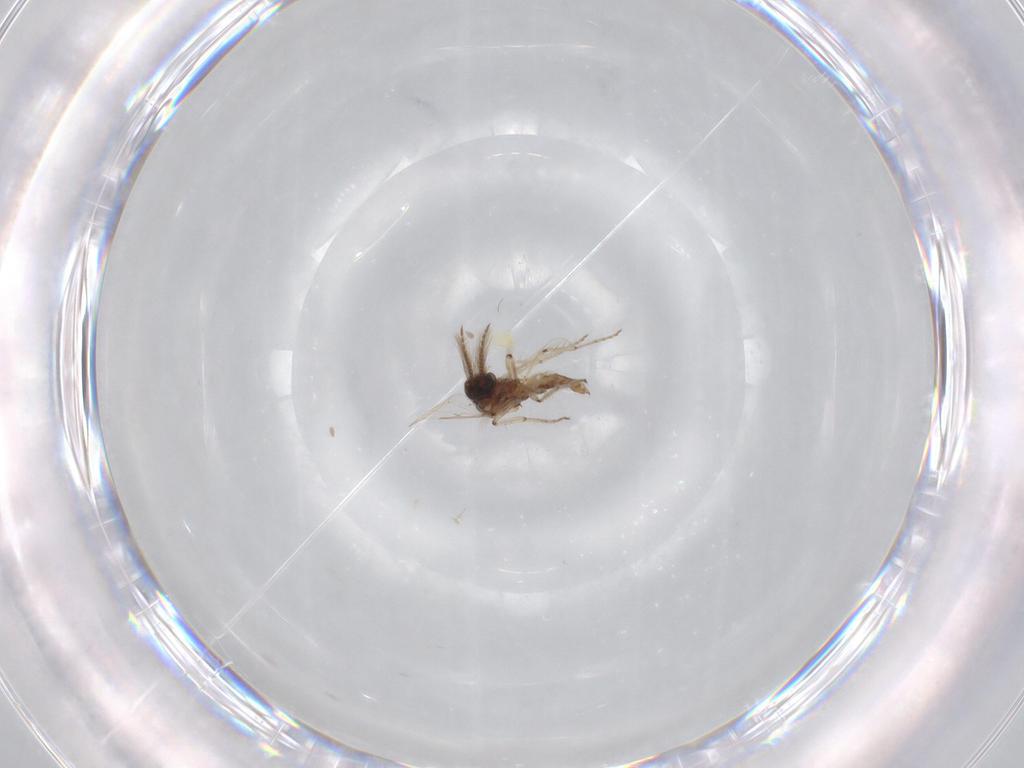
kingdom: Animalia
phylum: Arthropoda
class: Insecta
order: Diptera
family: Ceratopogonidae
